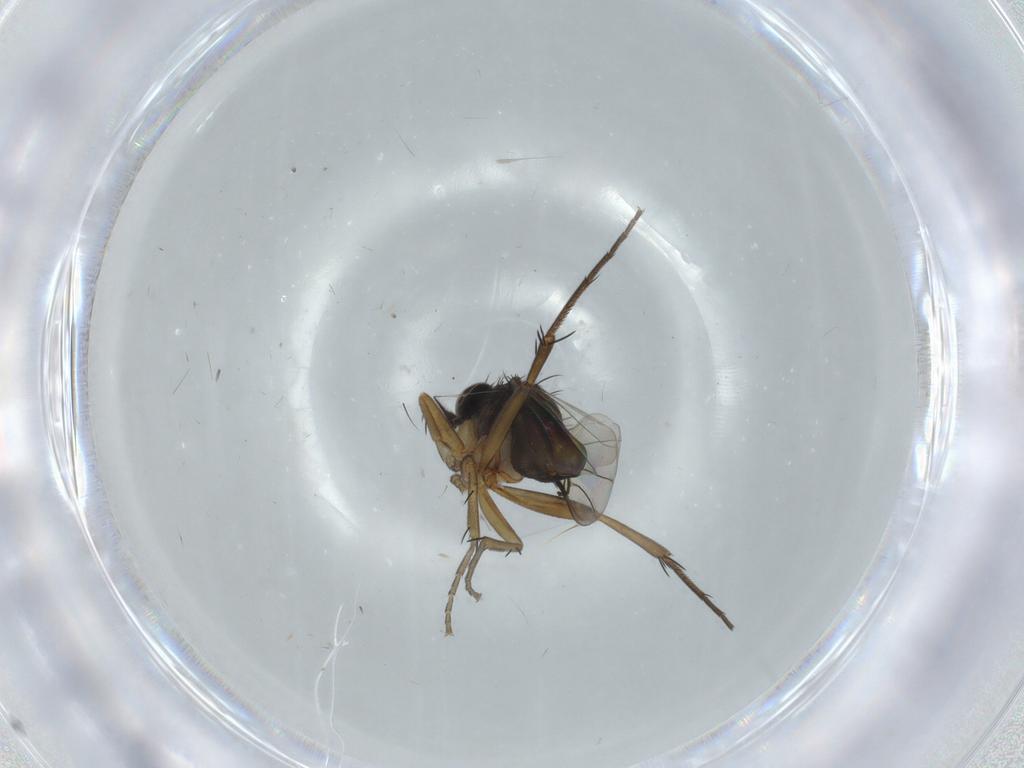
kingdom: Animalia
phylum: Arthropoda
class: Insecta
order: Diptera
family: Phoridae
